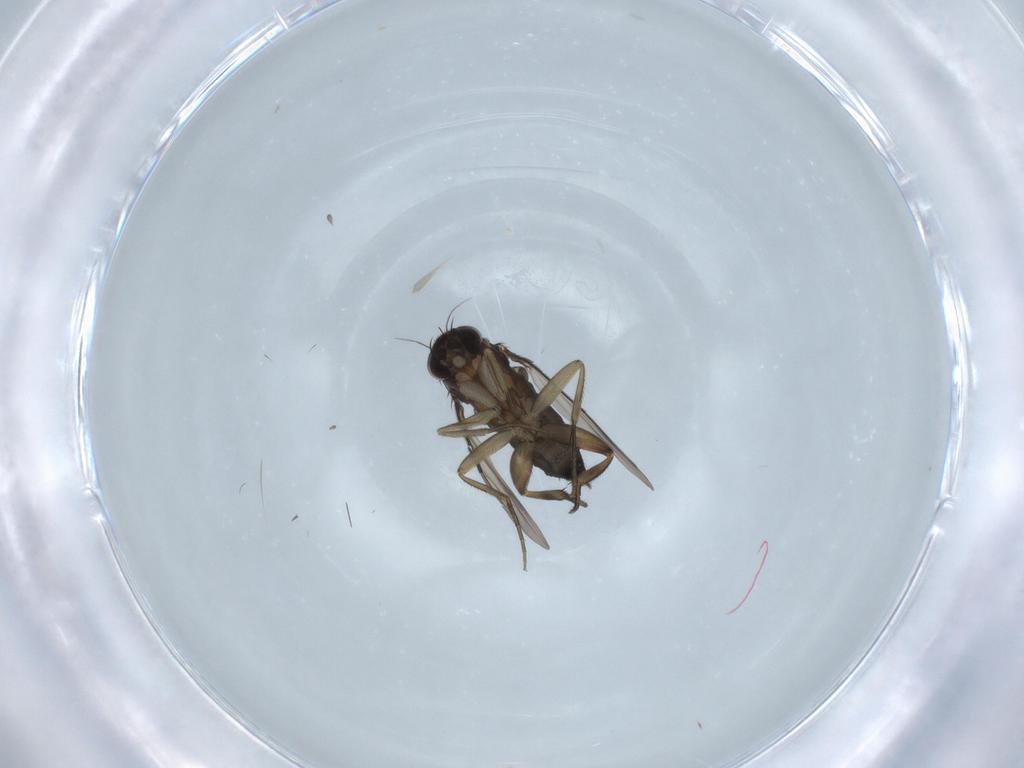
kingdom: Animalia
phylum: Arthropoda
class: Insecta
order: Diptera
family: Phoridae
